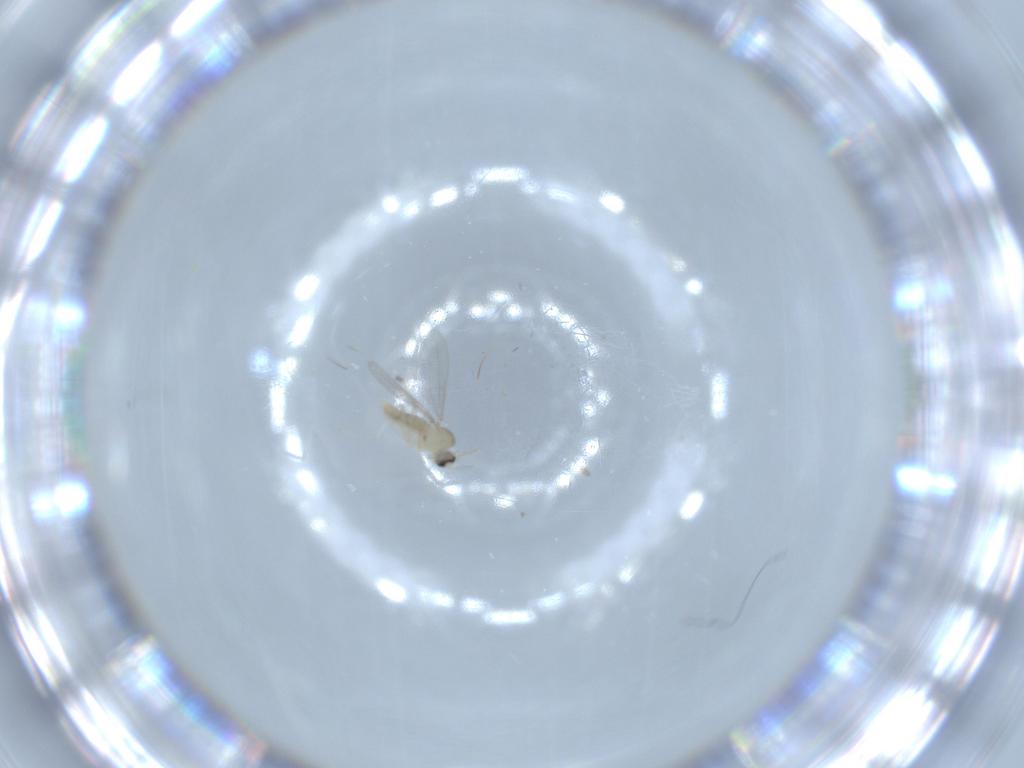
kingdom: Animalia
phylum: Arthropoda
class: Insecta
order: Diptera
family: Cecidomyiidae
